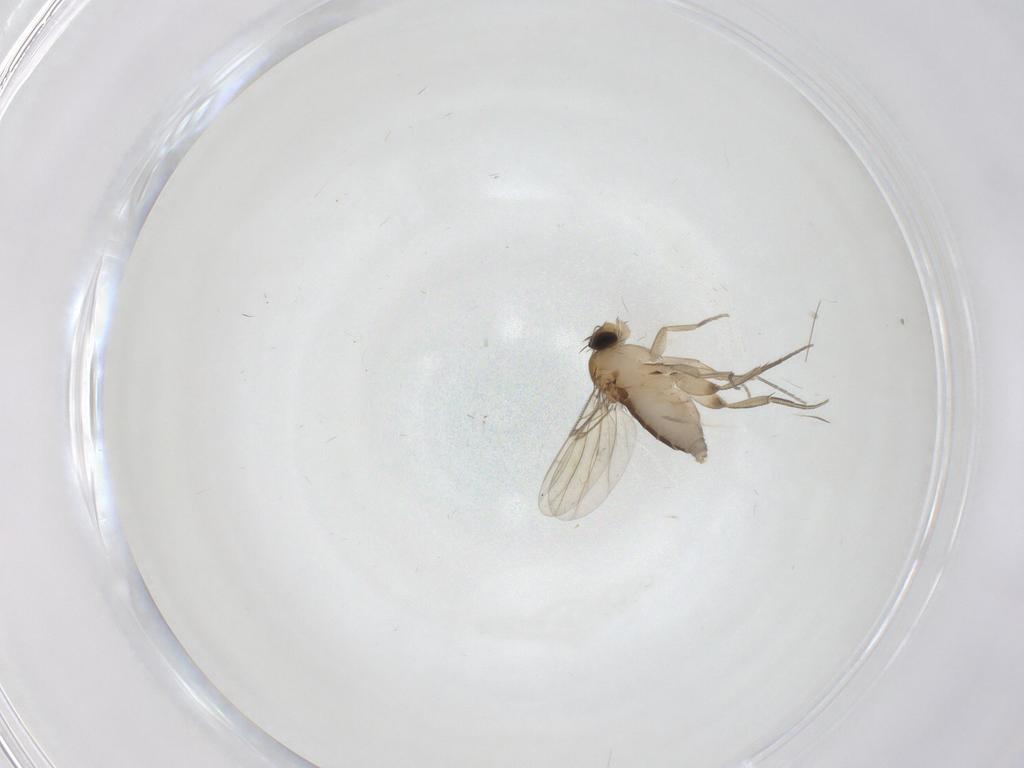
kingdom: Animalia
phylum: Arthropoda
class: Insecta
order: Diptera
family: Phoridae
